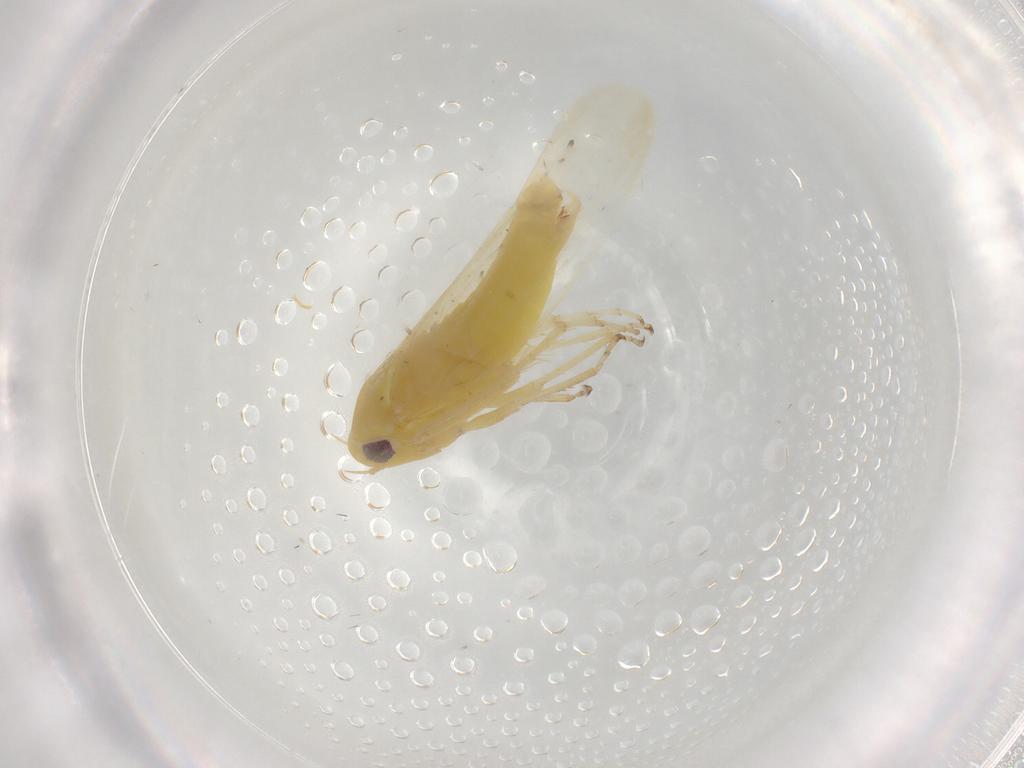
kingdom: Animalia
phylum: Arthropoda
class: Insecta
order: Hemiptera
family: Cicadellidae
